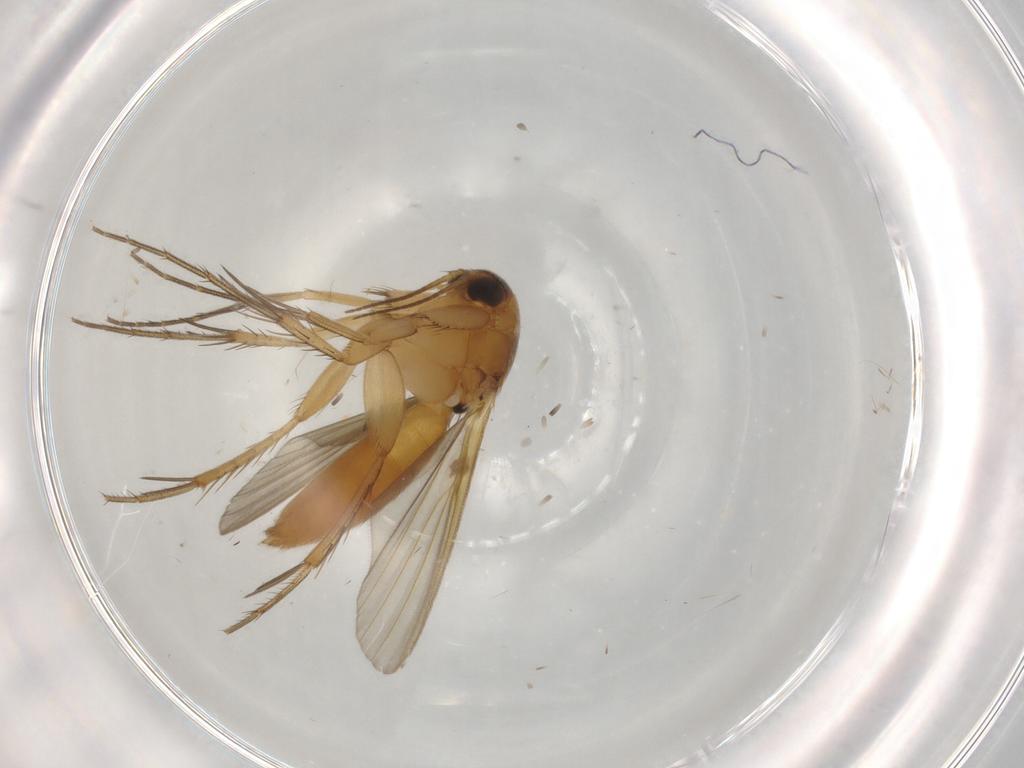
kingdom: Animalia
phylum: Arthropoda
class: Insecta
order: Diptera
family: Mycetophilidae
